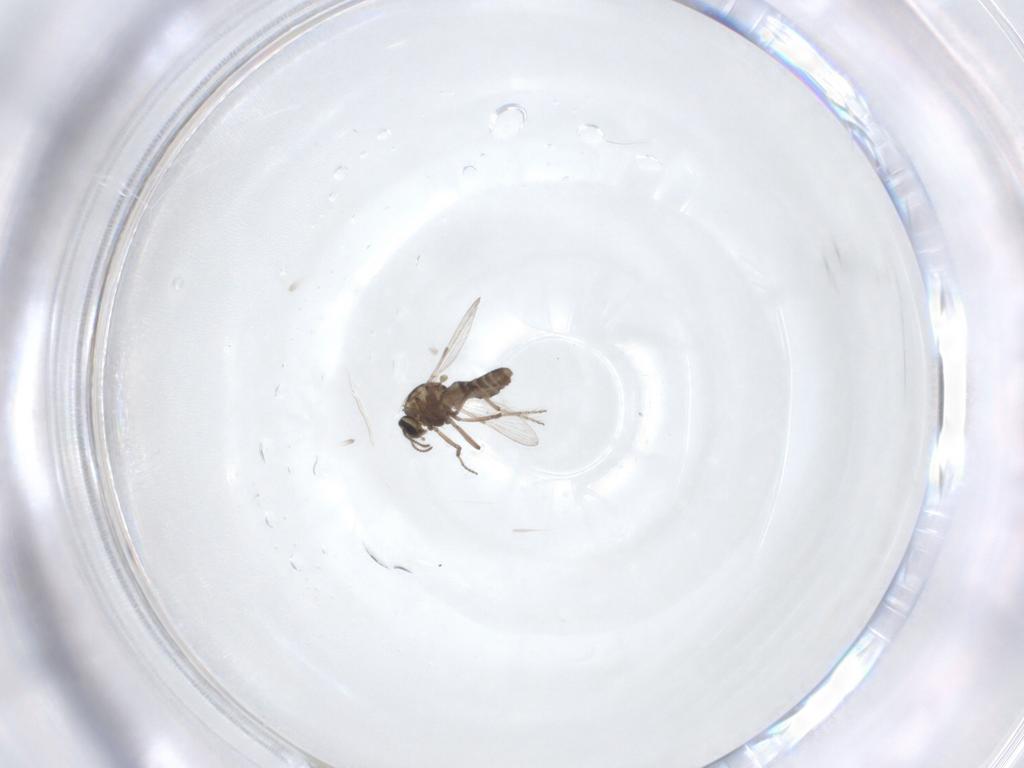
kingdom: Animalia
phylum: Arthropoda
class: Insecta
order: Diptera
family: Ceratopogonidae
